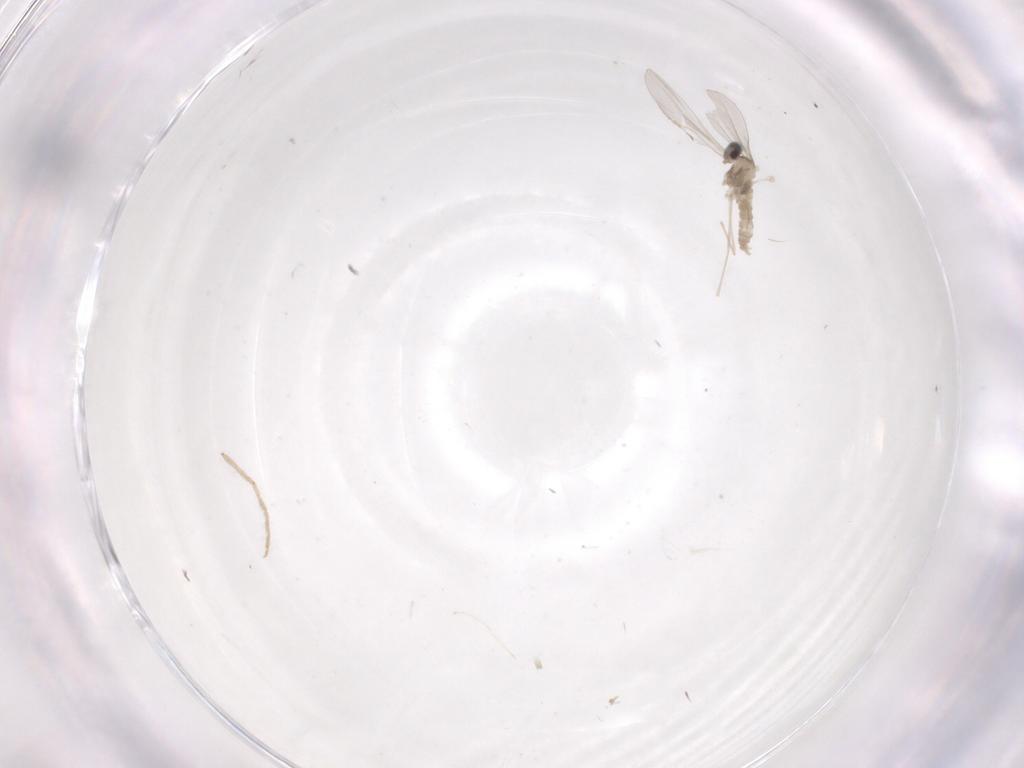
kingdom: Animalia
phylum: Arthropoda
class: Insecta
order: Diptera
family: Cecidomyiidae
